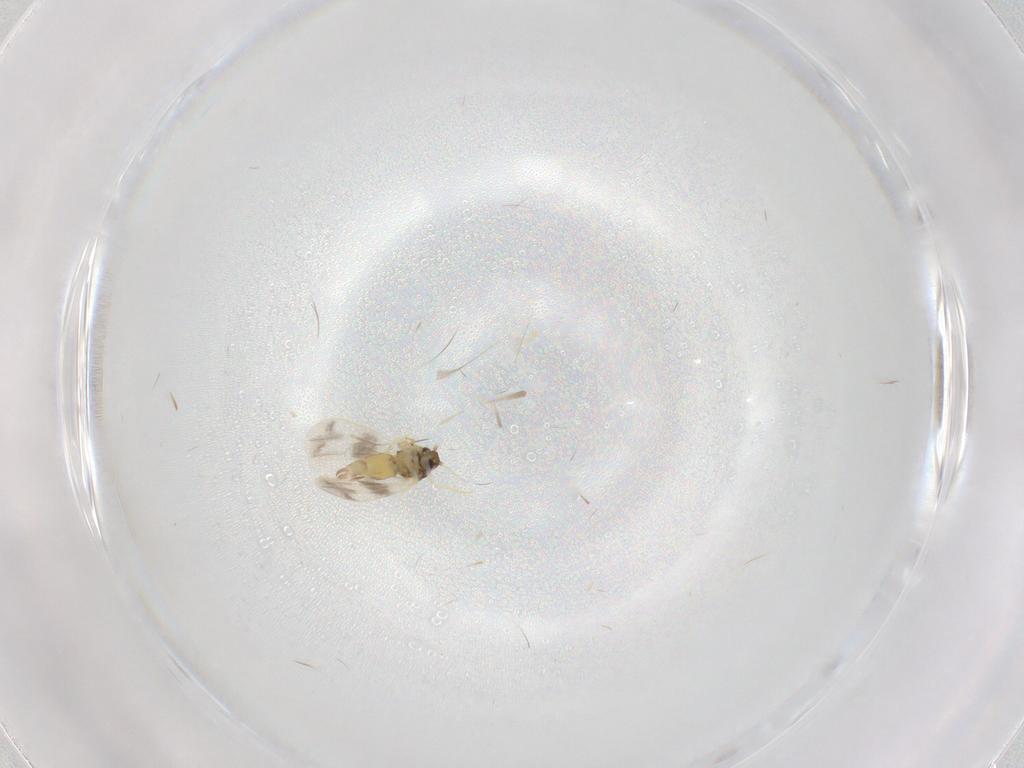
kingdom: Animalia
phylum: Arthropoda
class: Insecta
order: Hemiptera
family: Aleyrodidae
